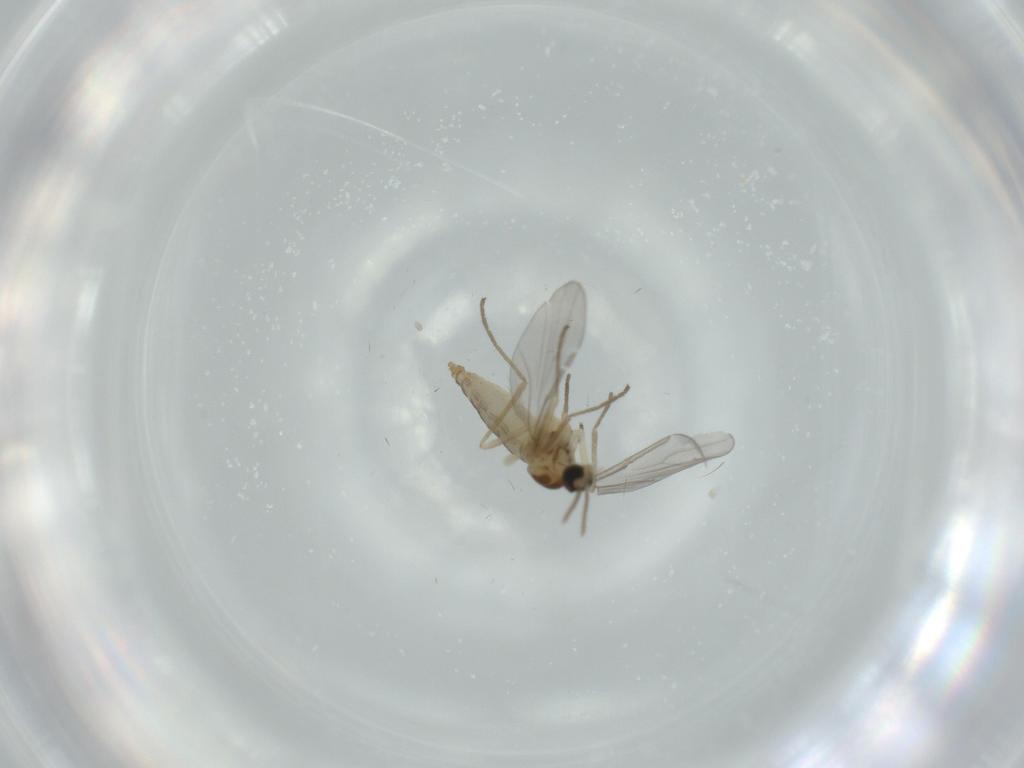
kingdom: Animalia
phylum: Arthropoda
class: Insecta
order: Diptera
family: Cecidomyiidae
